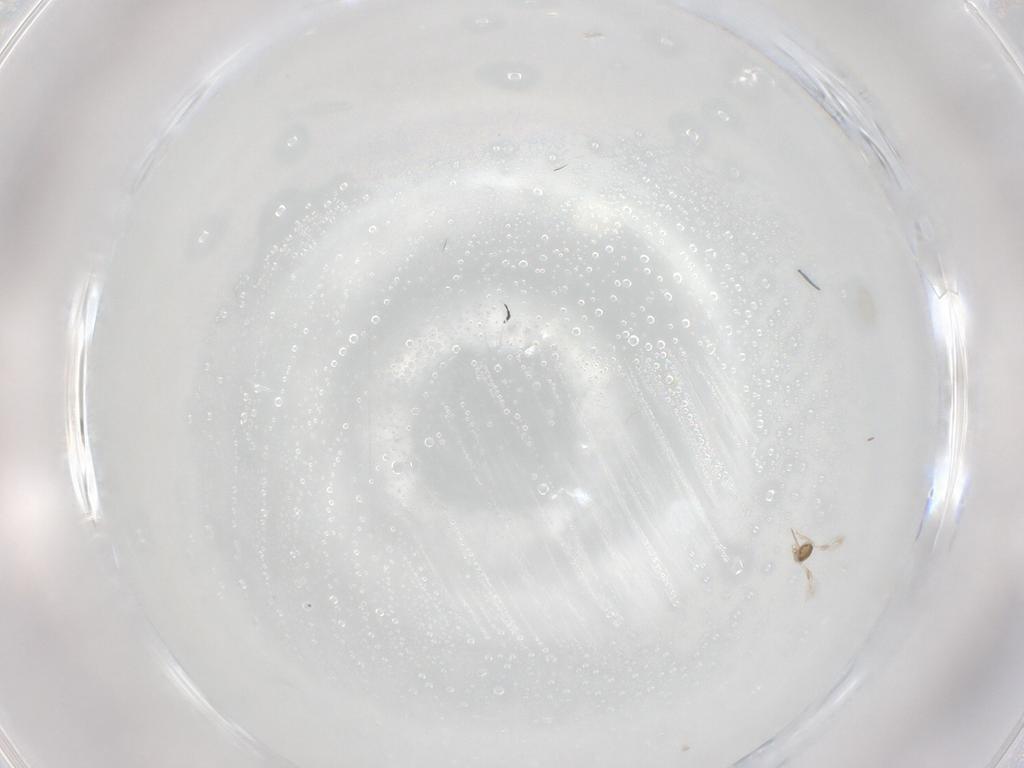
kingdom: Animalia
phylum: Arthropoda
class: Insecta
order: Hymenoptera
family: Scelionidae
